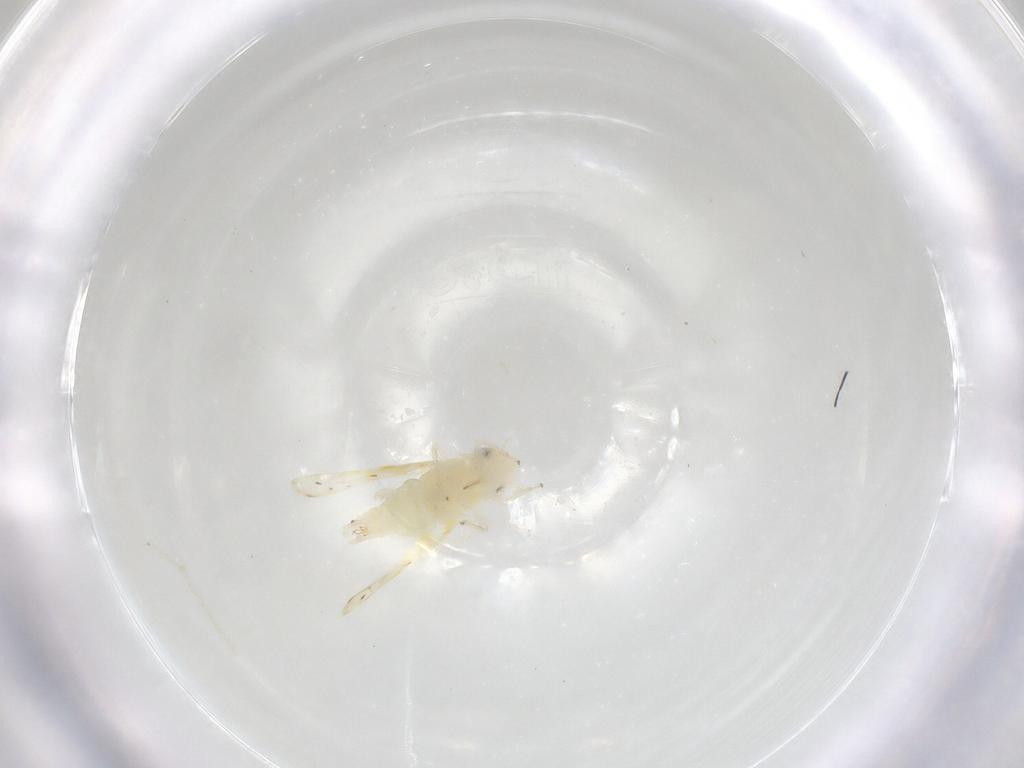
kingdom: Animalia
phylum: Arthropoda
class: Insecta
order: Hemiptera
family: Cicadellidae
